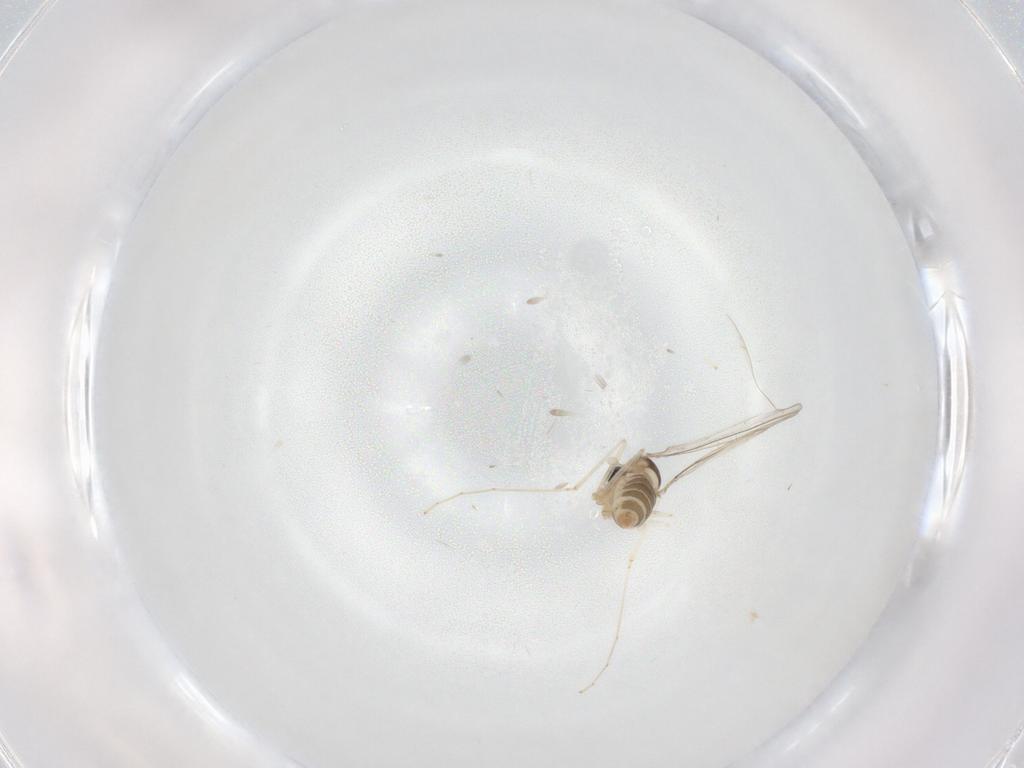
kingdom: Animalia
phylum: Arthropoda
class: Insecta
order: Diptera
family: Cecidomyiidae
